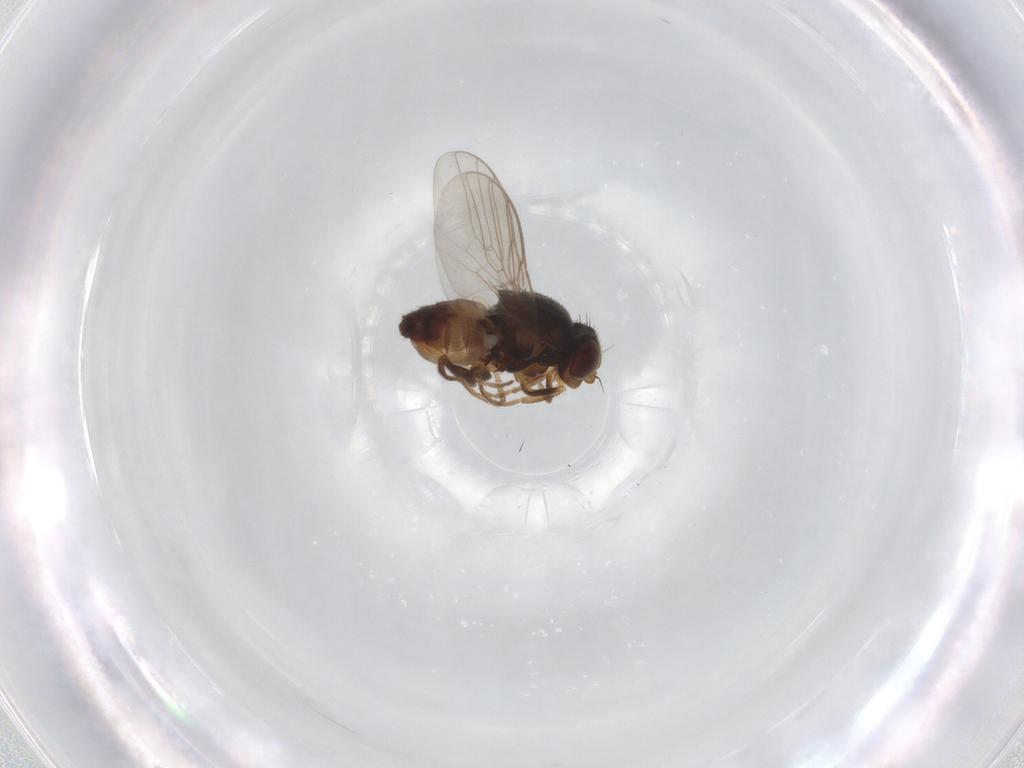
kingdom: Animalia
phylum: Arthropoda
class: Insecta
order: Diptera
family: Chloropidae
